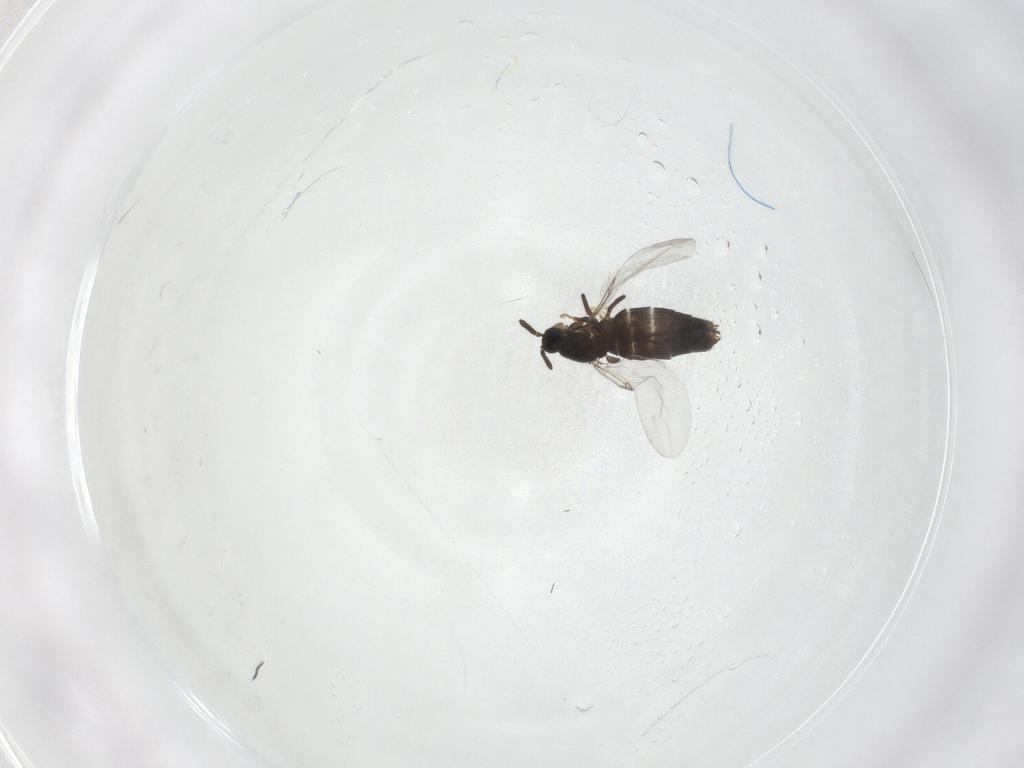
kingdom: Animalia
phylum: Arthropoda
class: Insecta
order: Diptera
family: Scatopsidae
